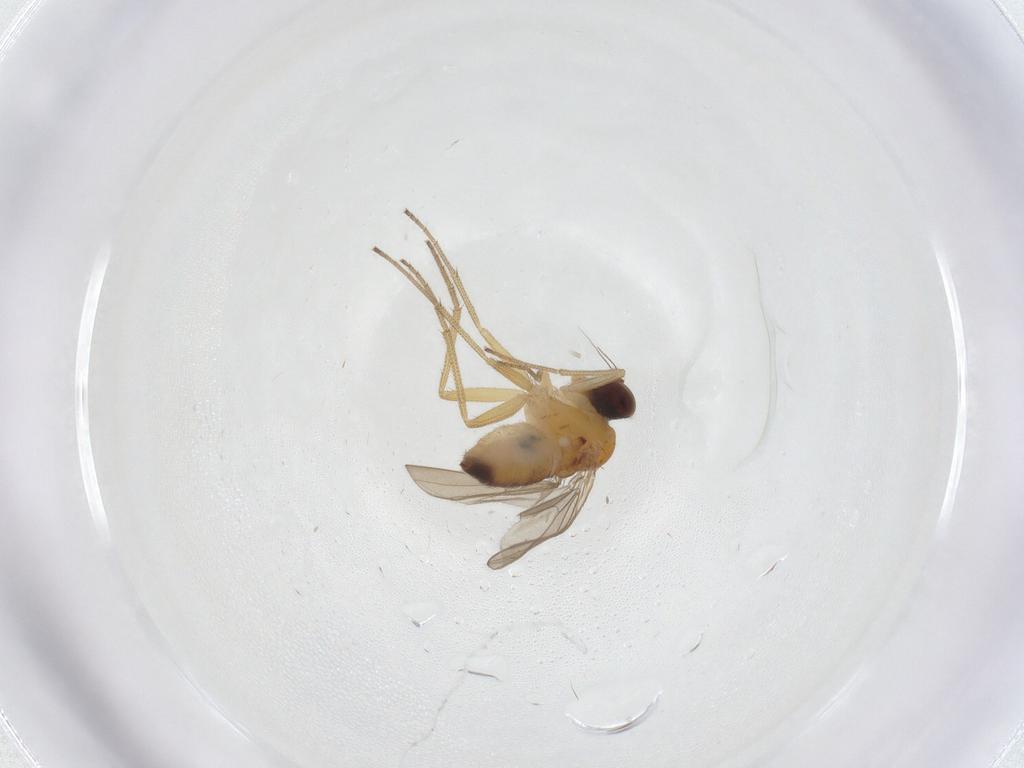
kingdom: Animalia
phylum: Arthropoda
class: Insecta
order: Diptera
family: Dolichopodidae
